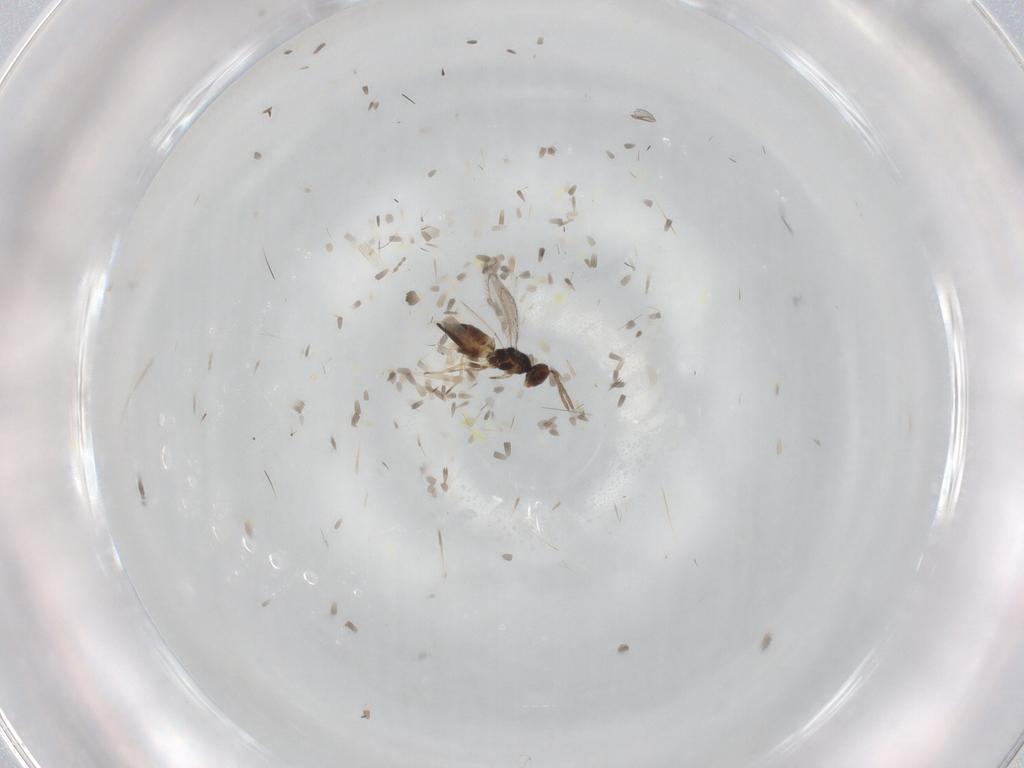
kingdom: Animalia
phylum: Arthropoda
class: Insecta
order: Hymenoptera
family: Eulophidae
